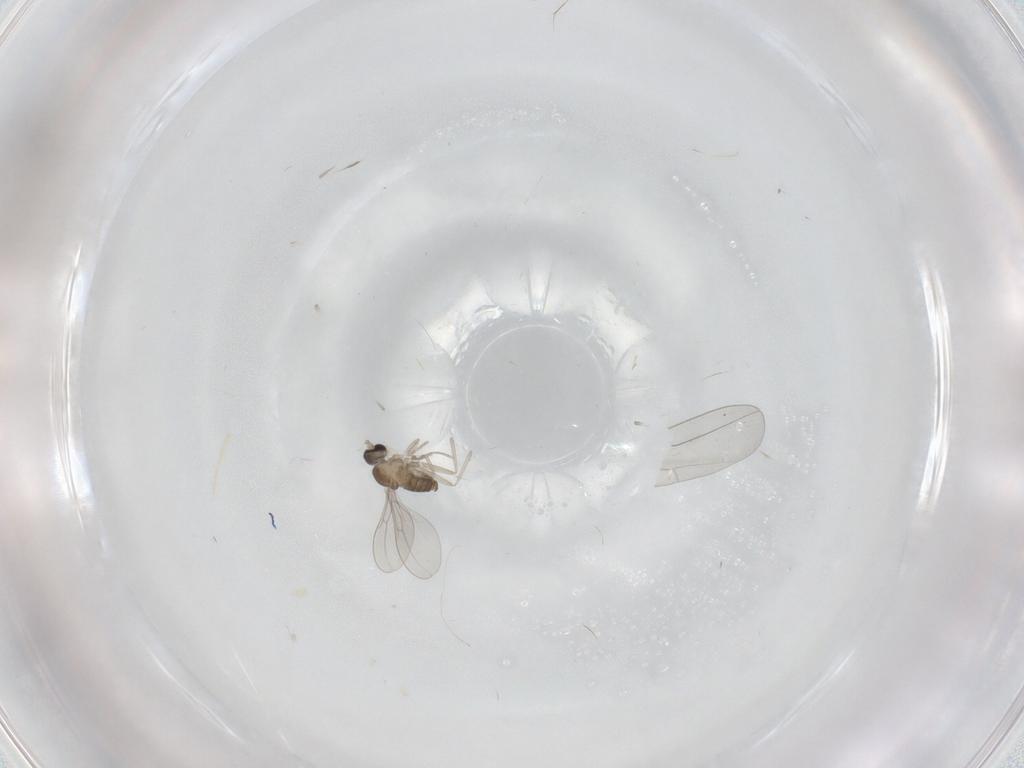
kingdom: Animalia
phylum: Arthropoda
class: Insecta
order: Diptera
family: Cecidomyiidae
